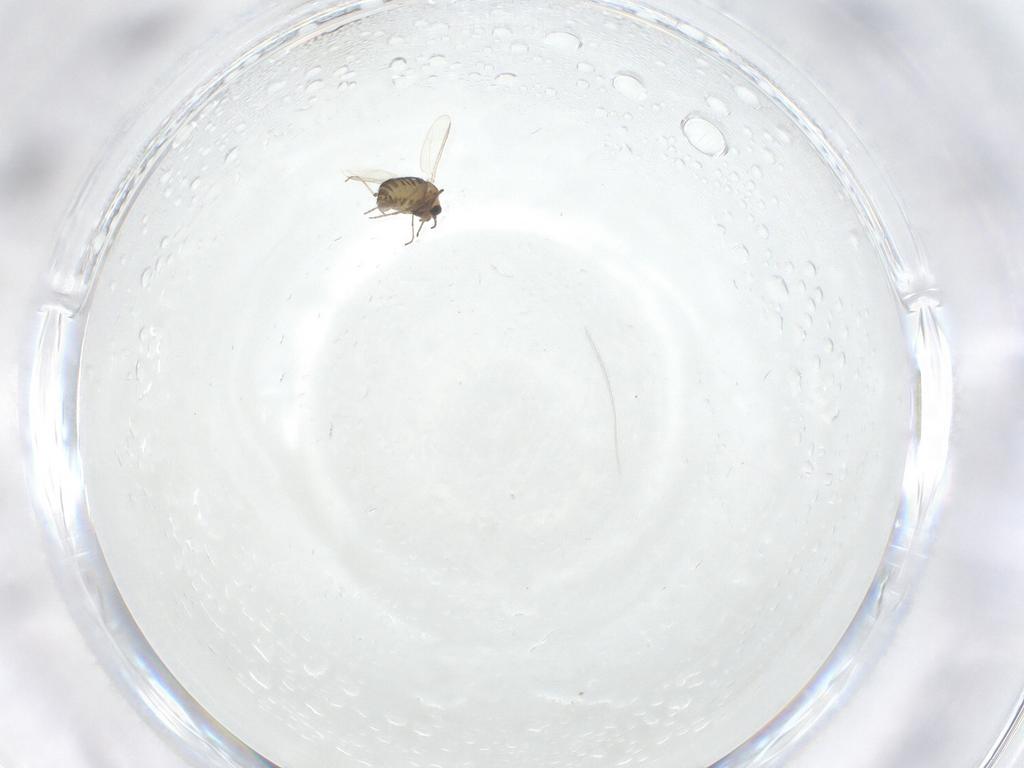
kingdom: Animalia
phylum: Arthropoda
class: Insecta
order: Diptera
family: Chironomidae
